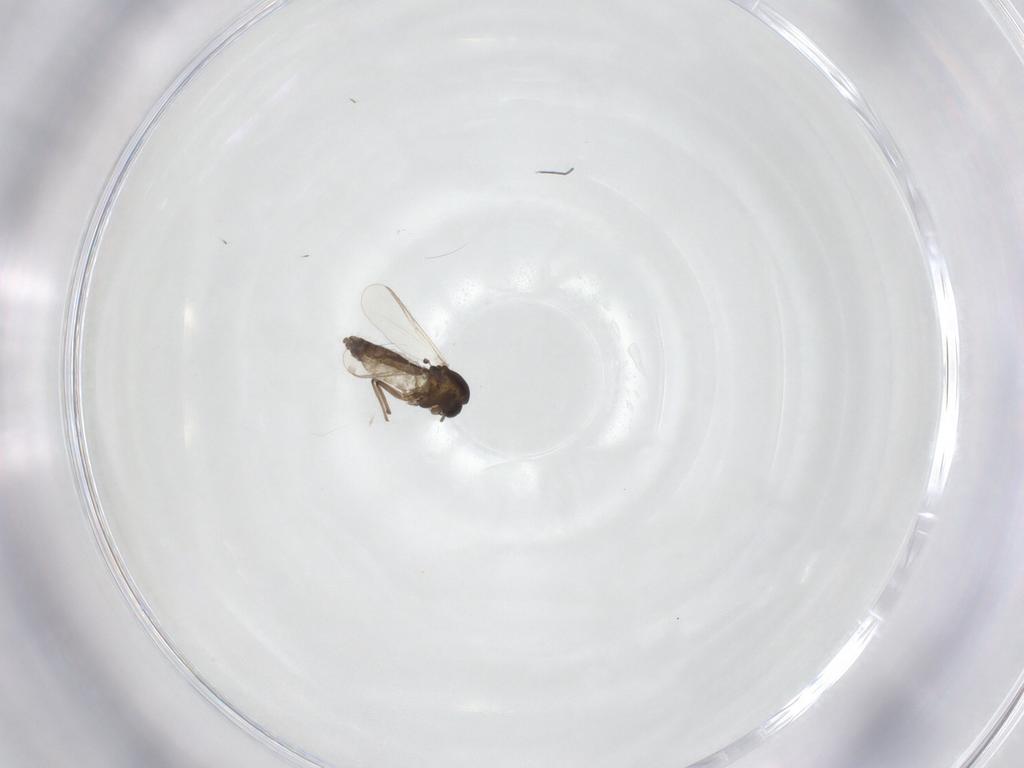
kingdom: Animalia
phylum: Arthropoda
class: Insecta
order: Diptera
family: Chironomidae
